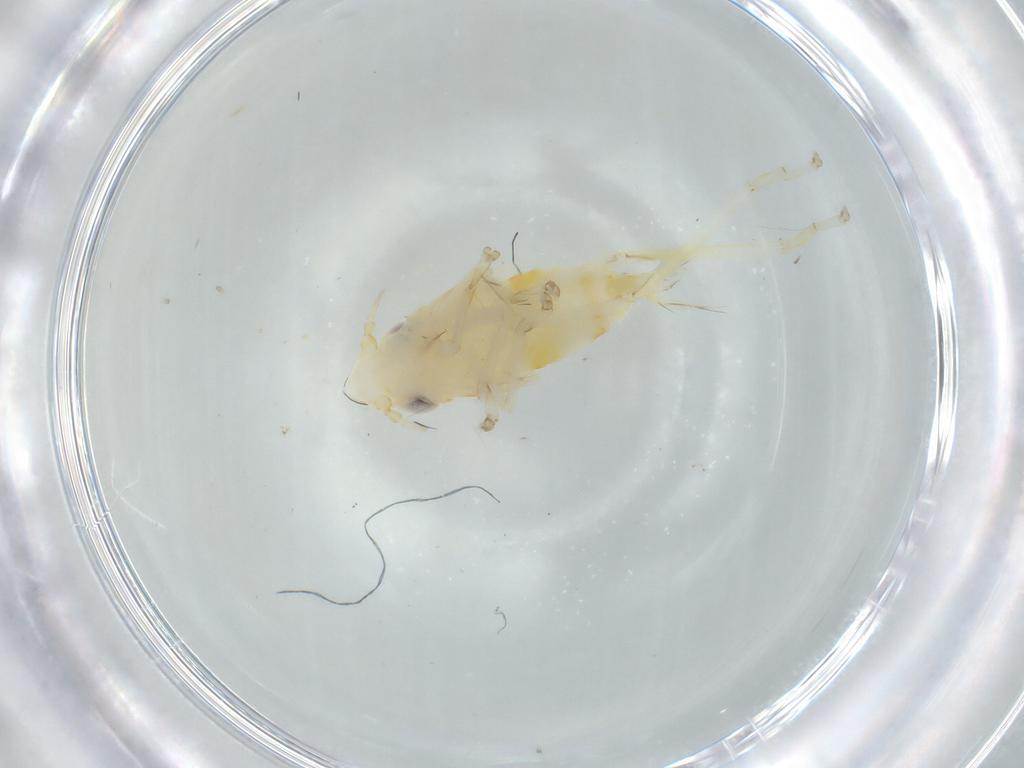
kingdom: Animalia
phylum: Arthropoda
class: Insecta
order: Hemiptera
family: Cicadellidae
